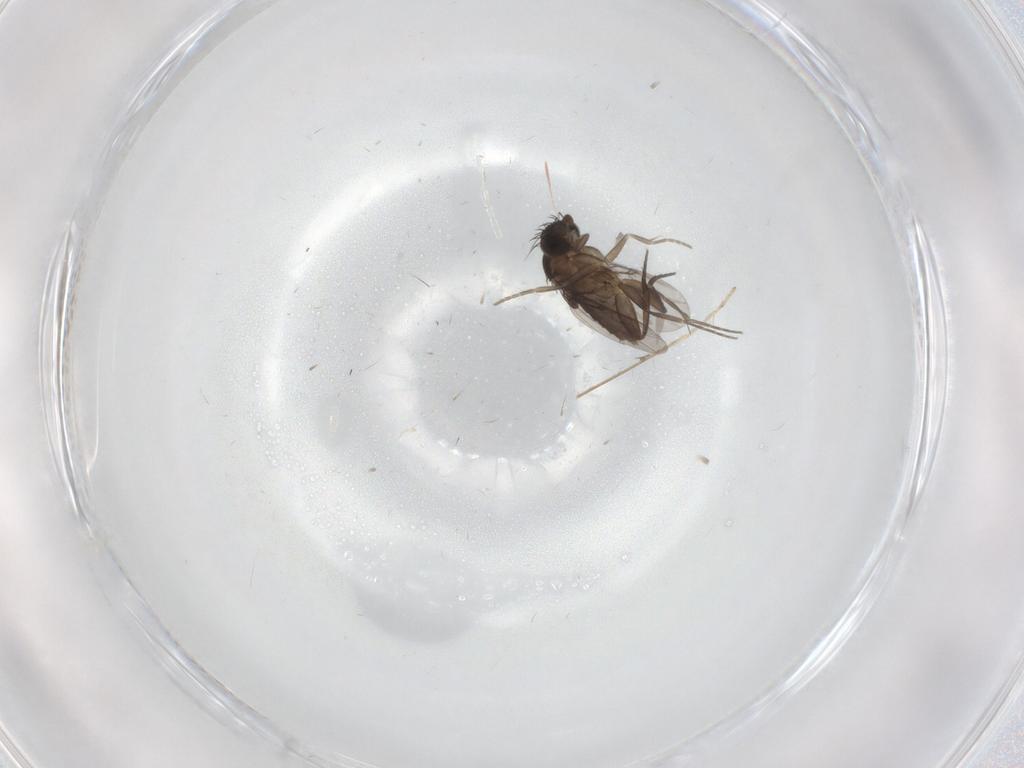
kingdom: Animalia
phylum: Arthropoda
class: Insecta
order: Diptera
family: Phoridae
